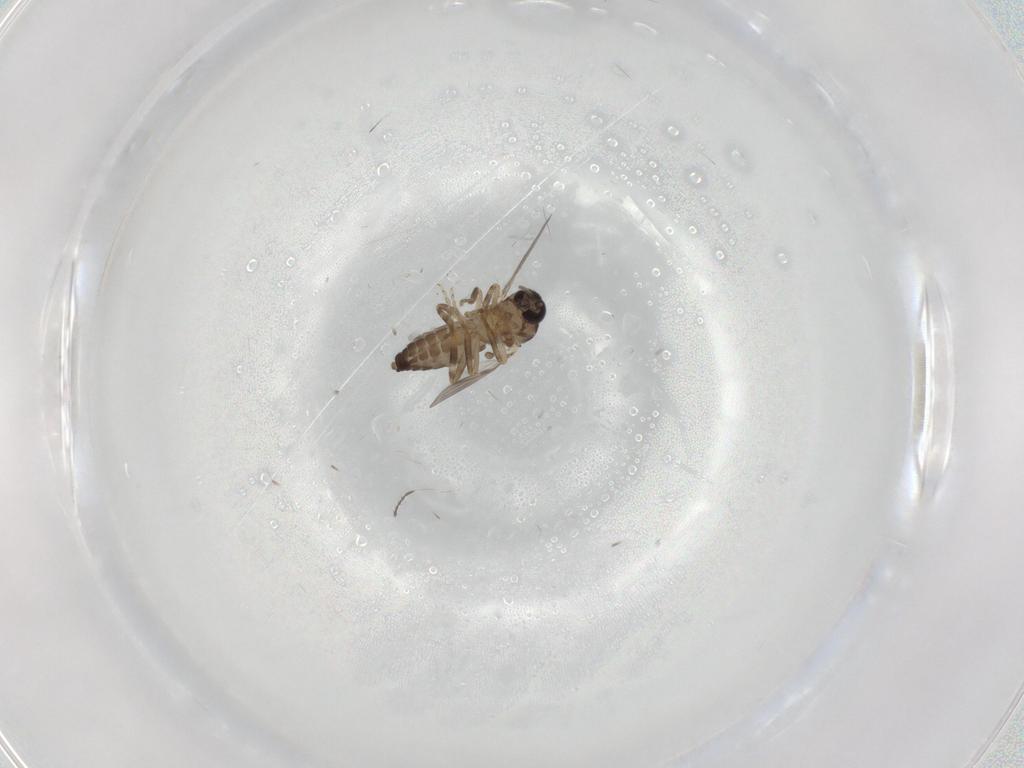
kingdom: Animalia
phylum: Arthropoda
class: Insecta
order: Diptera
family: Ceratopogonidae
